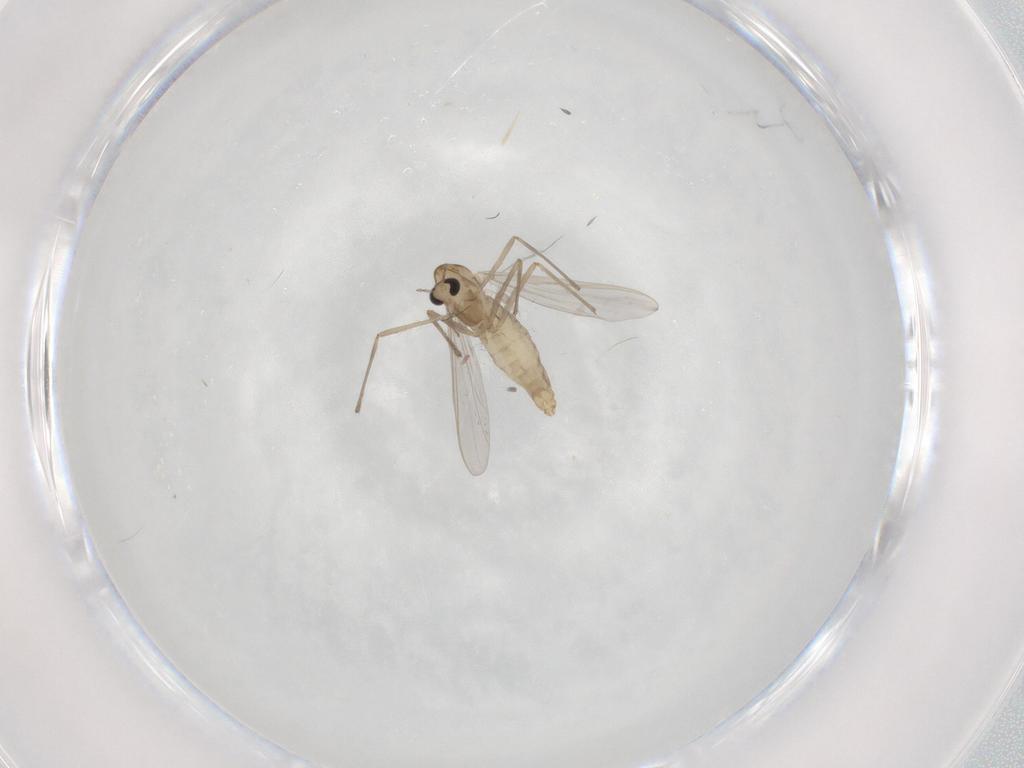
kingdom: Animalia
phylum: Arthropoda
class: Insecta
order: Diptera
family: Chironomidae
